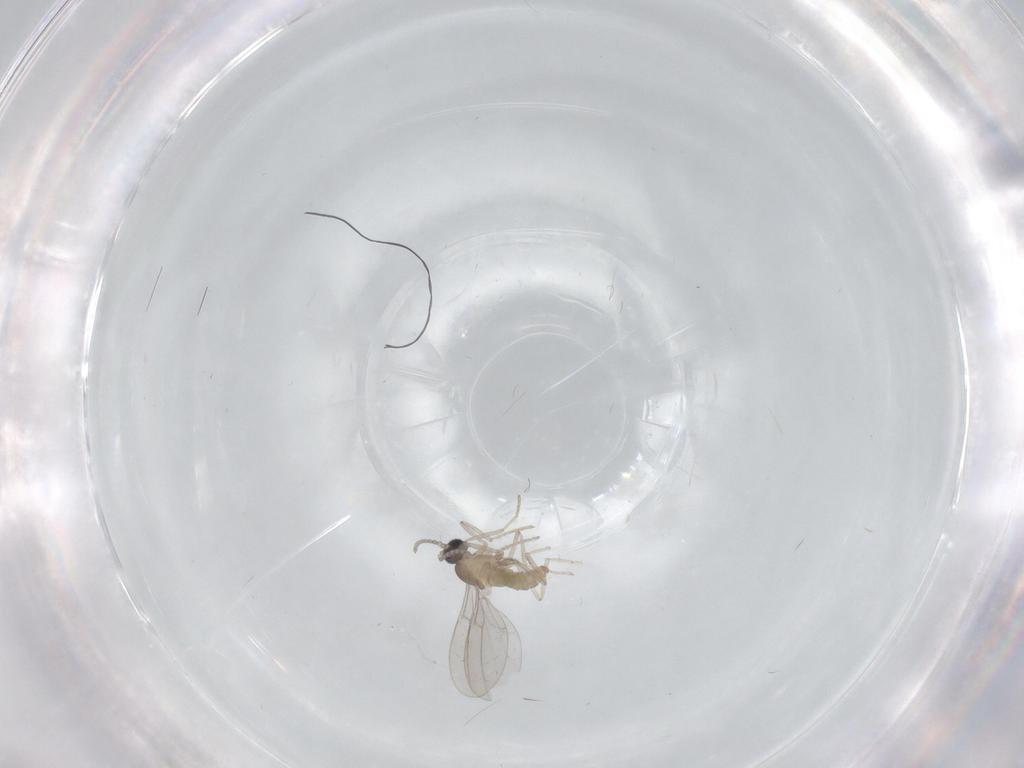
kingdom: Animalia
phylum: Arthropoda
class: Insecta
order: Diptera
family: Cecidomyiidae
